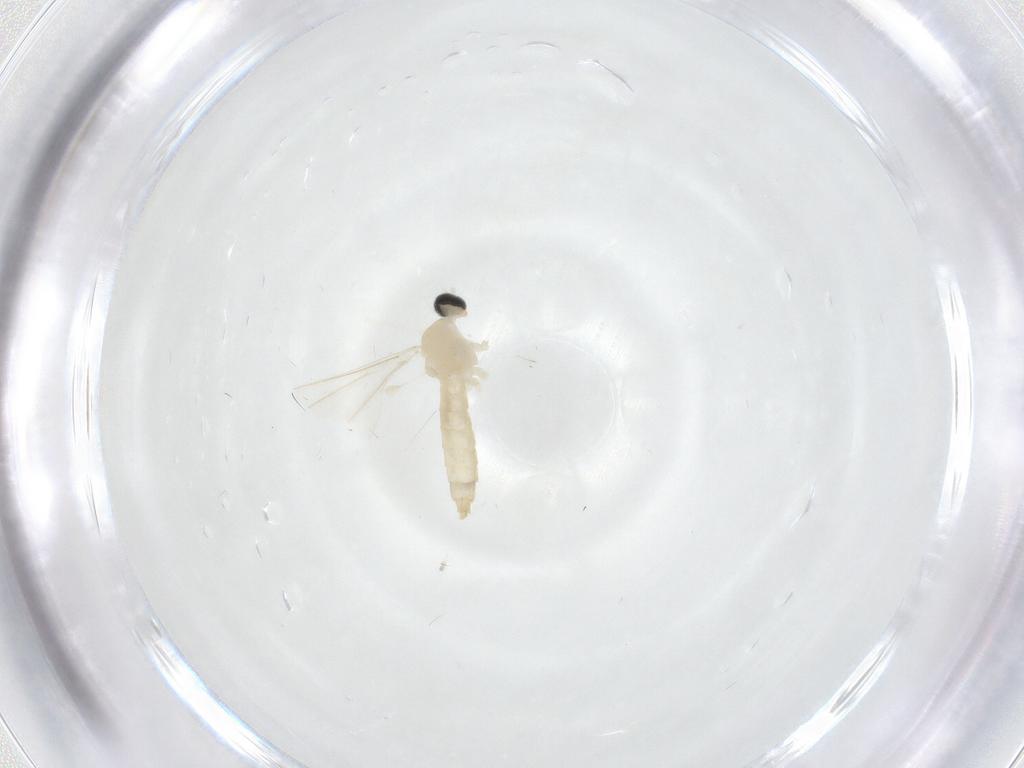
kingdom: Animalia
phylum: Arthropoda
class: Insecta
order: Diptera
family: Cecidomyiidae
